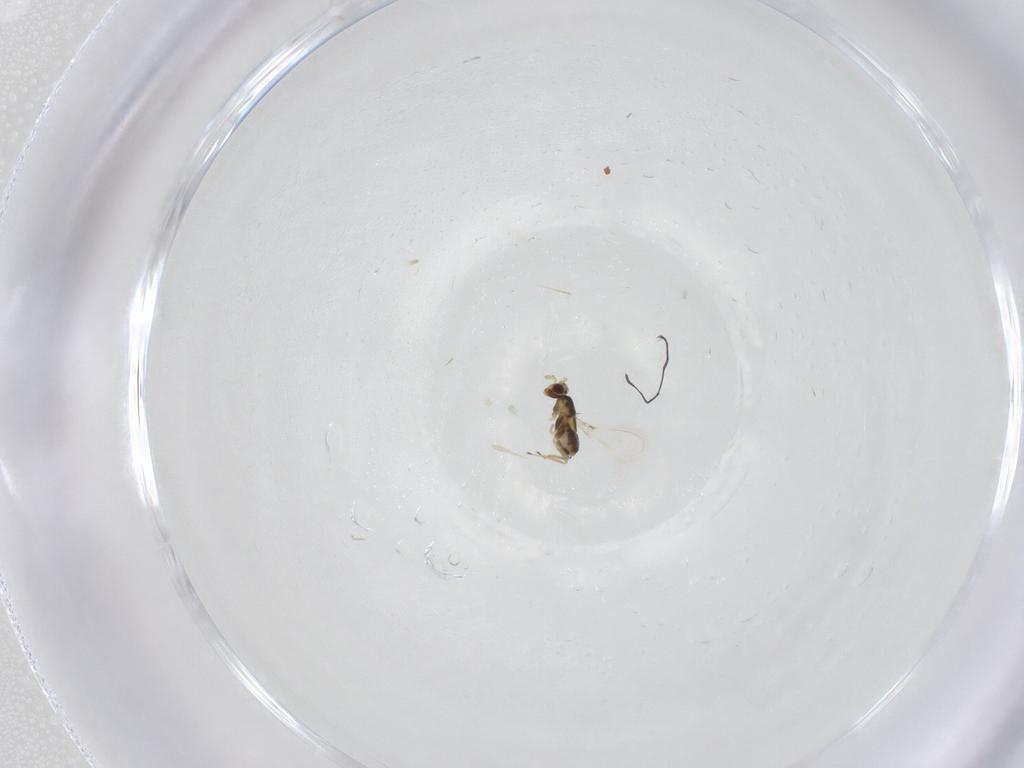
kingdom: Animalia
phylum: Arthropoda
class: Insecta
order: Hymenoptera
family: Mymaridae
